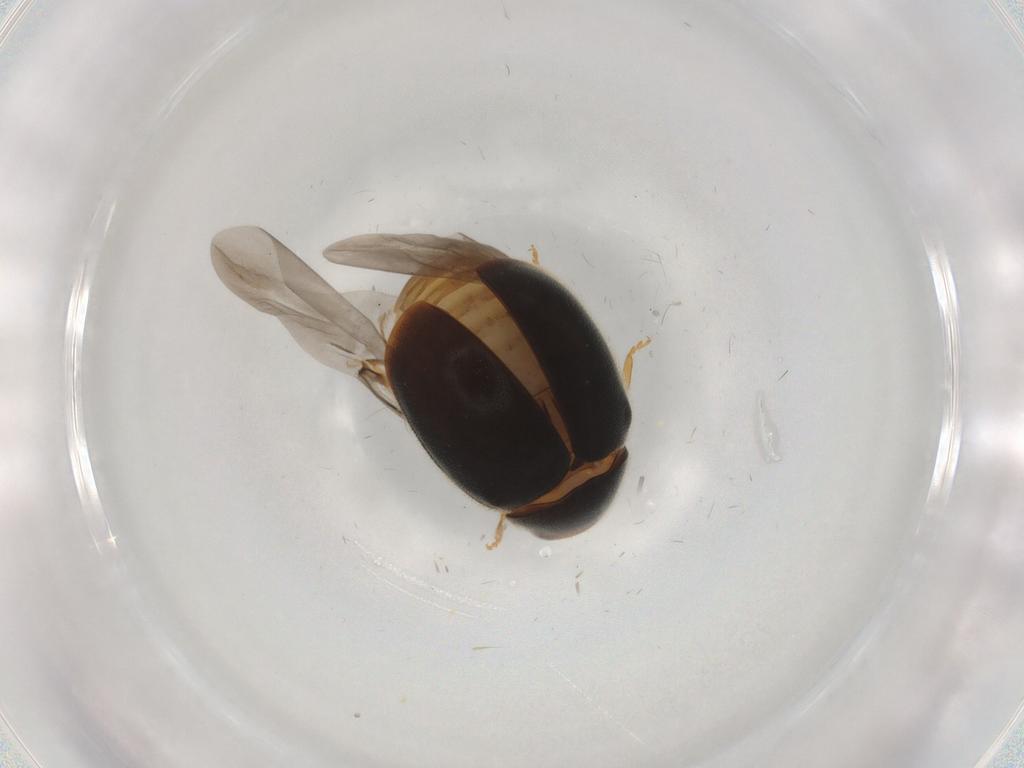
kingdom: Animalia
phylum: Arthropoda
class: Insecta
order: Coleoptera
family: Coccinellidae
